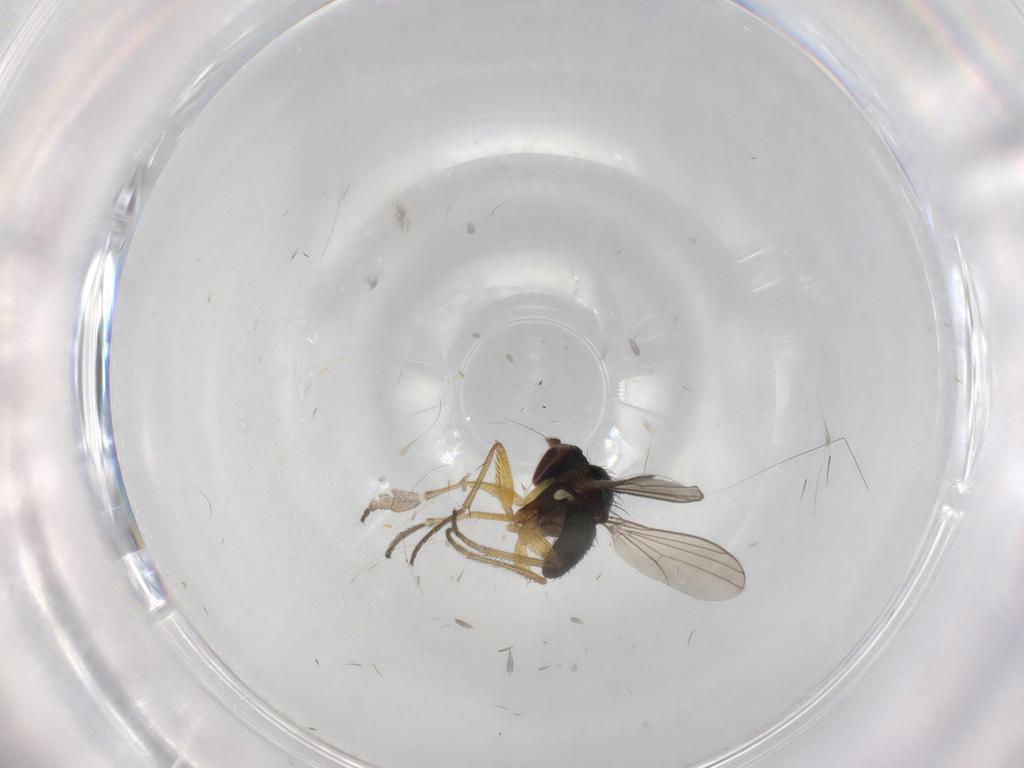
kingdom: Animalia
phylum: Arthropoda
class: Insecta
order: Diptera
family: Dolichopodidae
